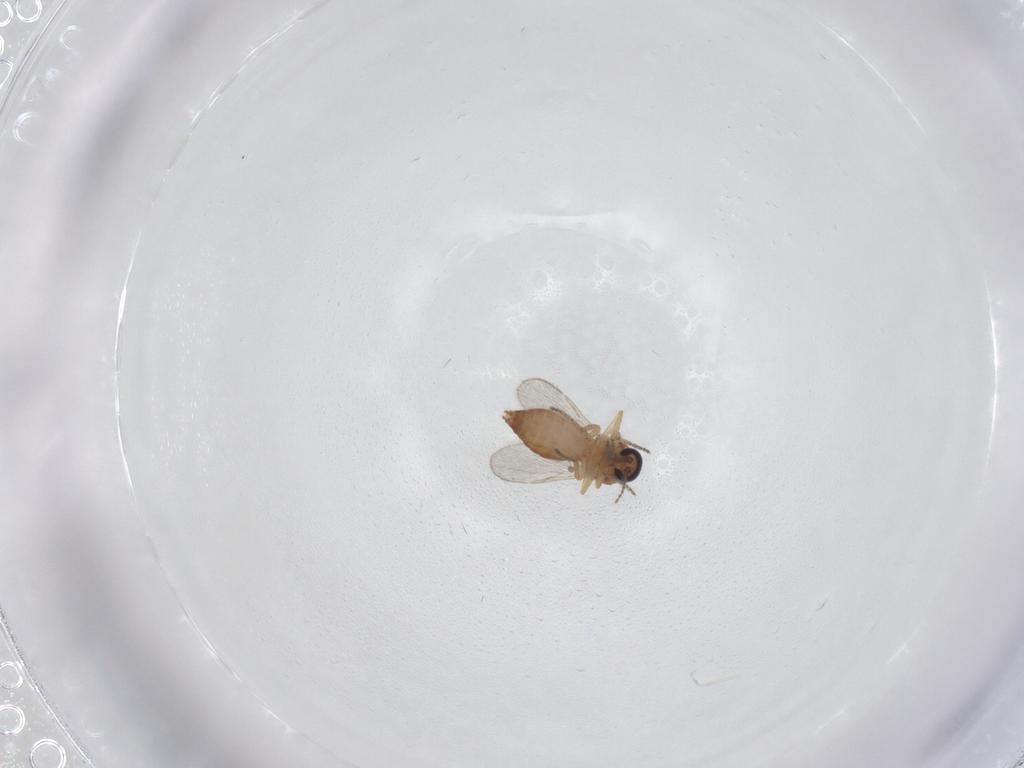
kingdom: Animalia
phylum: Arthropoda
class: Insecta
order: Diptera
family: Ceratopogonidae
